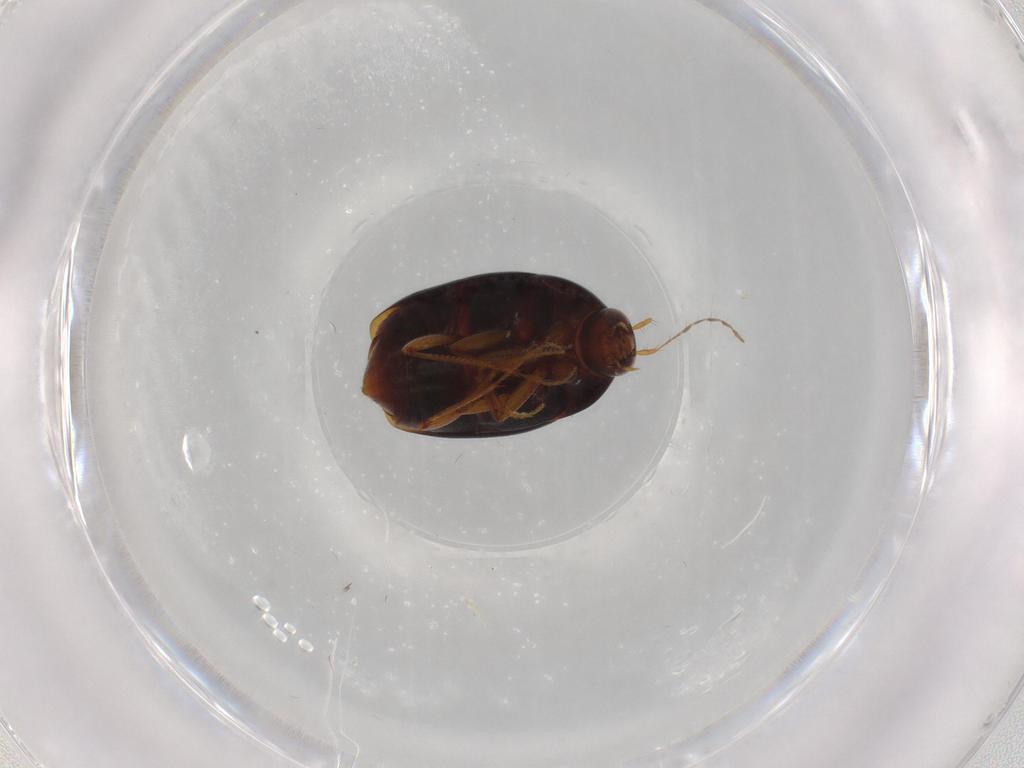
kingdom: Animalia
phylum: Arthropoda
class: Insecta
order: Coleoptera
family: Staphylinidae
